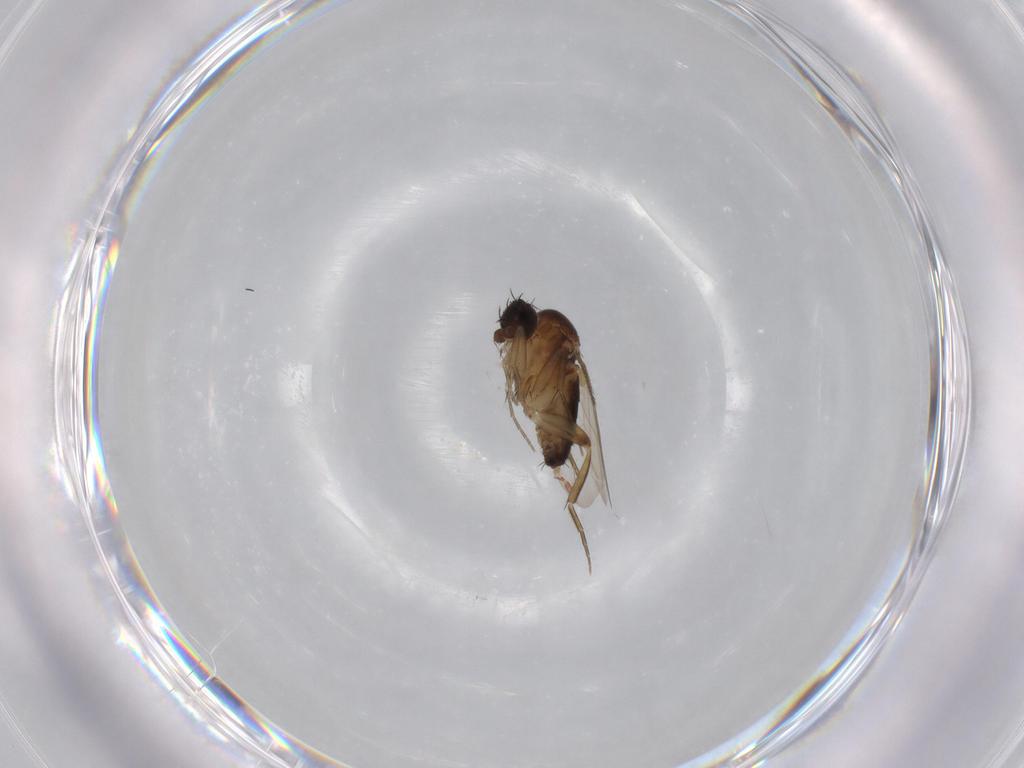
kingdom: Animalia
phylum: Arthropoda
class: Insecta
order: Diptera
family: Phoridae
